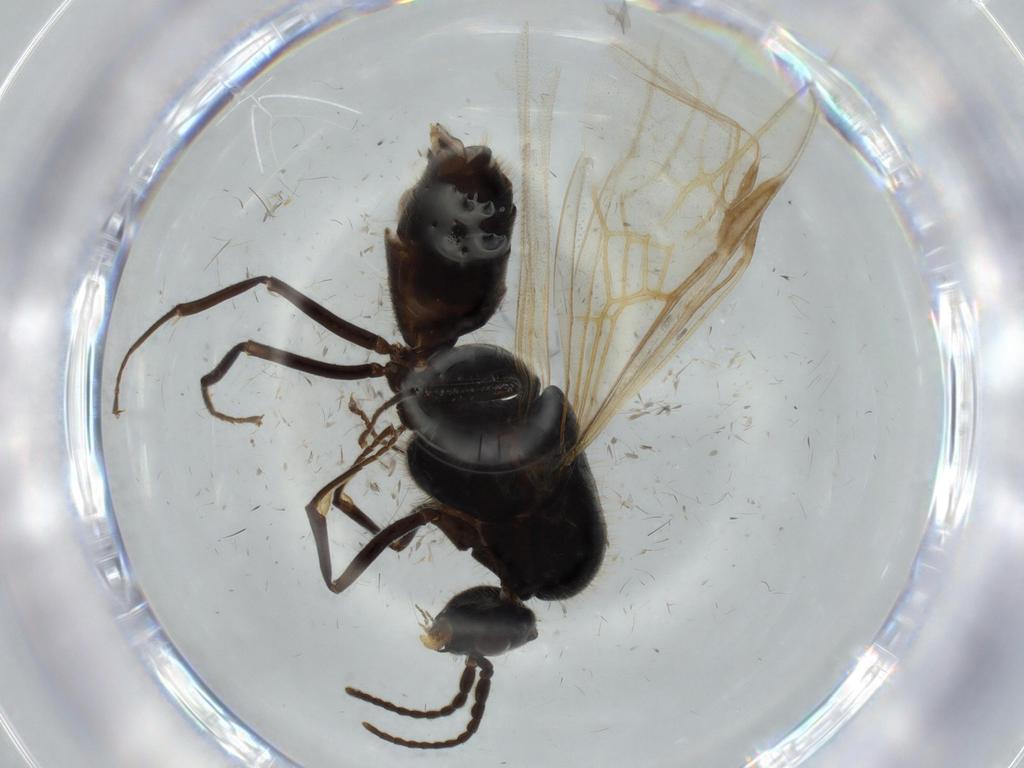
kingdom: Animalia
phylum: Arthropoda
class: Insecta
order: Hymenoptera
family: Formicidae
